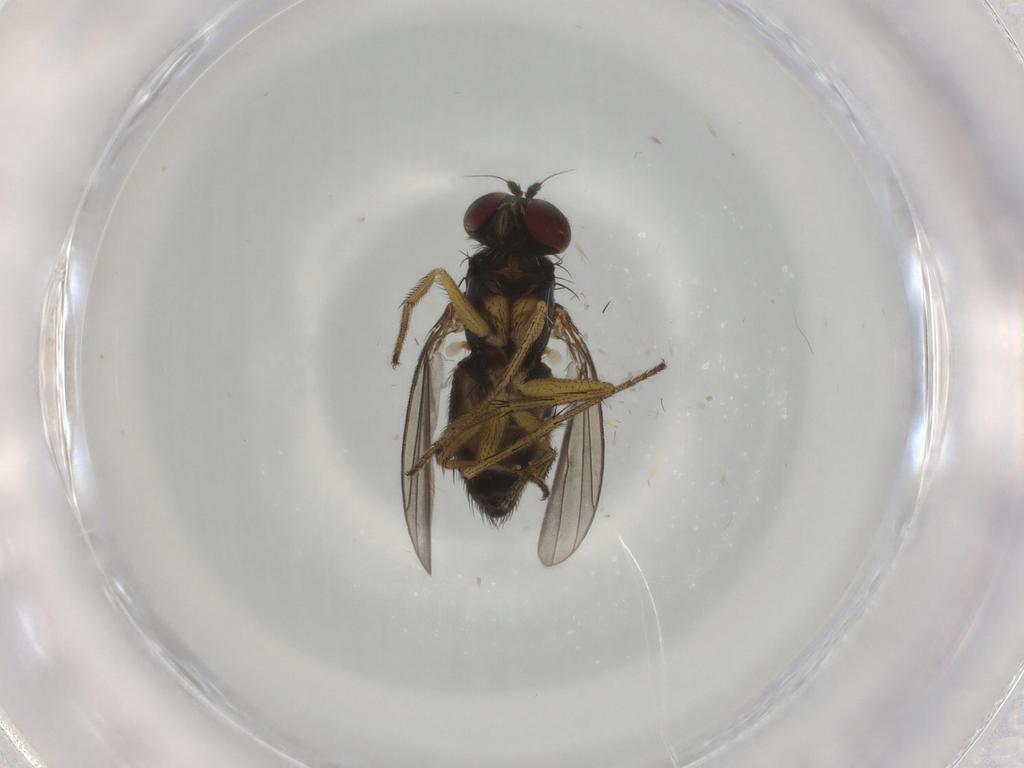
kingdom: Animalia
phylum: Arthropoda
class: Insecta
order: Diptera
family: Dolichopodidae
